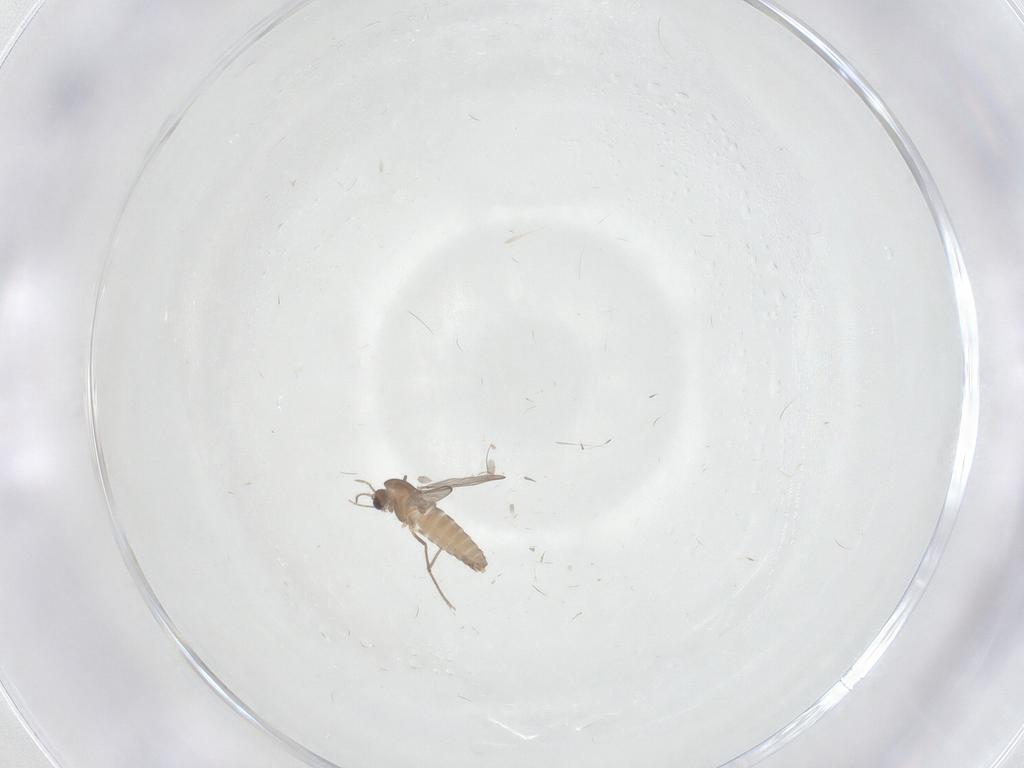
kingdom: Animalia
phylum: Arthropoda
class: Insecta
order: Diptera
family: Chironomidae
